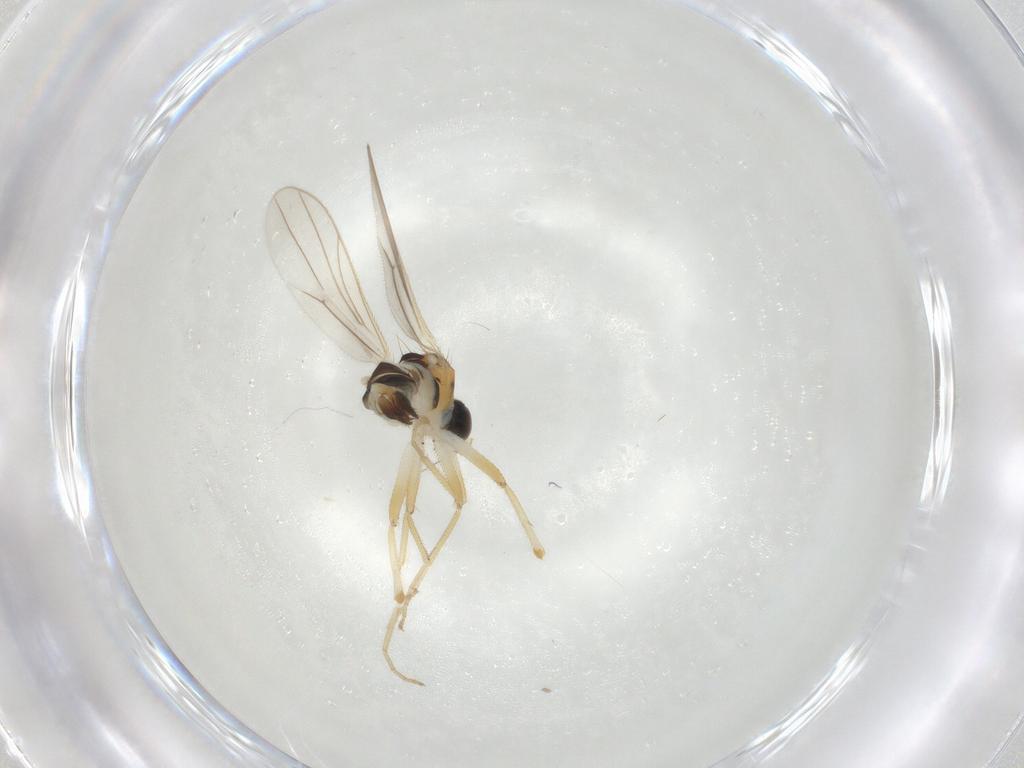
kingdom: Animalia
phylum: Arthropoda
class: Insecta
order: Diptera
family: Hybotidae
